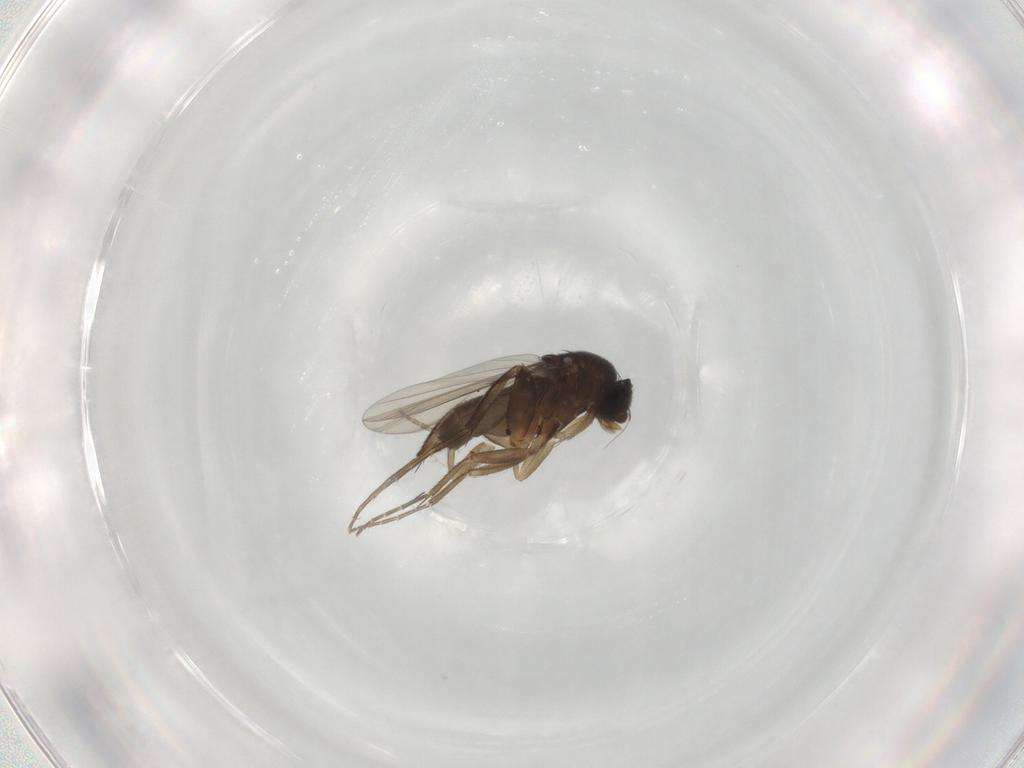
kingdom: Animalia
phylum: Arthropoda
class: Insecta
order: Diptera
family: Phoridae
